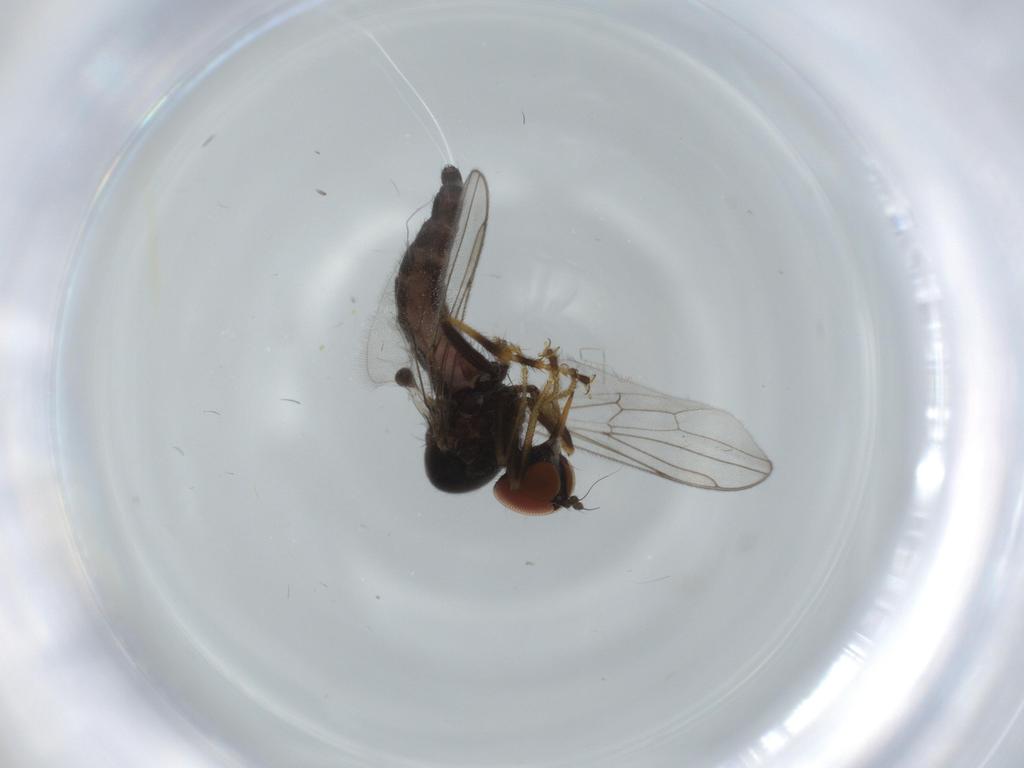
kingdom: Animalia
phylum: Arthropoda
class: Insecta
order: Diptera
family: Hybotidae
